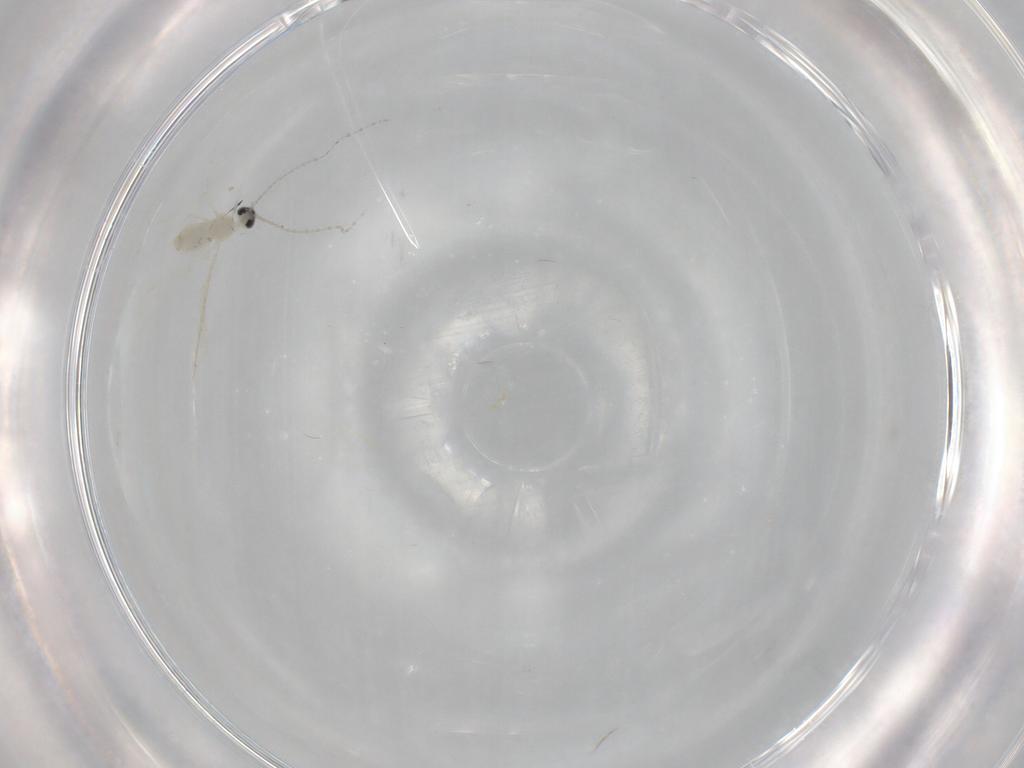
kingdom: Animalia
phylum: Arthropoda
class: Insecta
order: Diptera
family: Cecidomyiidae
